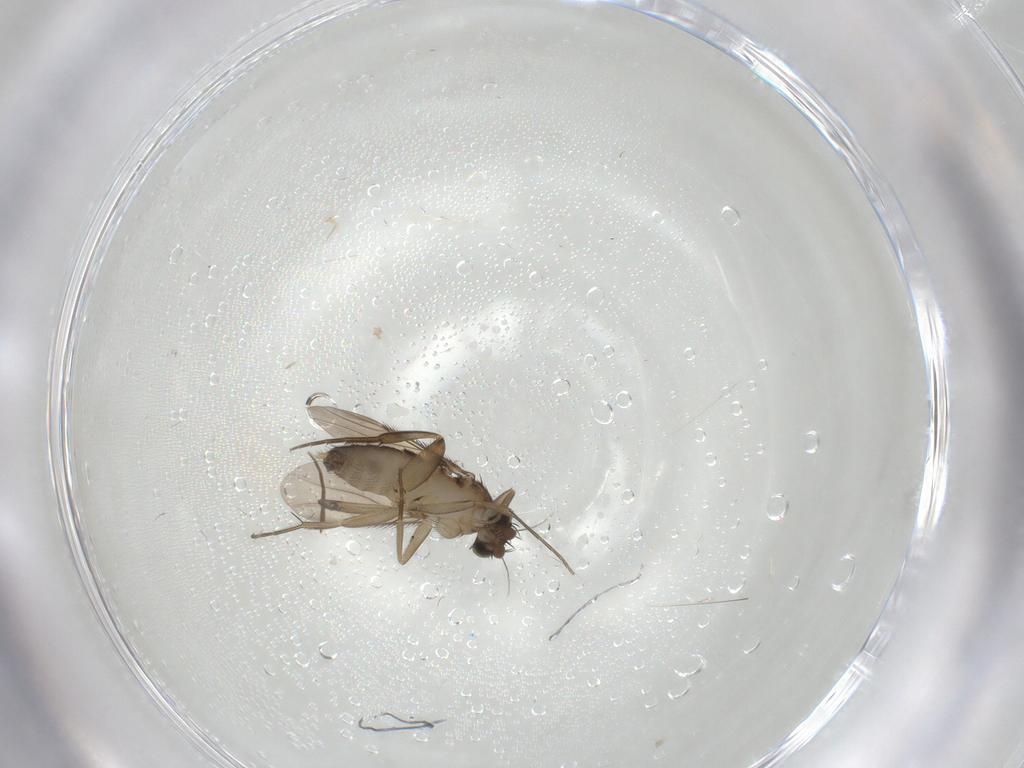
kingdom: Animalia
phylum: Arthropoda
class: Insecta
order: Diptera
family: Phoridae
